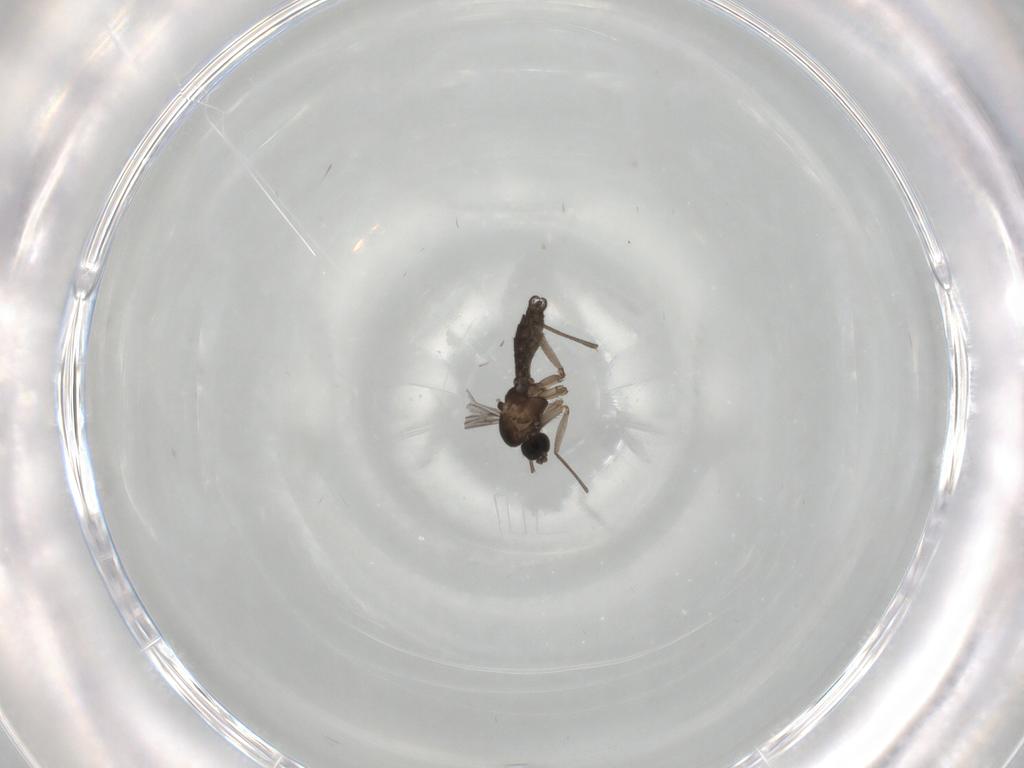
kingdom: Animalia
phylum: Arthropoda
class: Insecta
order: Diptera
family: Sciaridae
